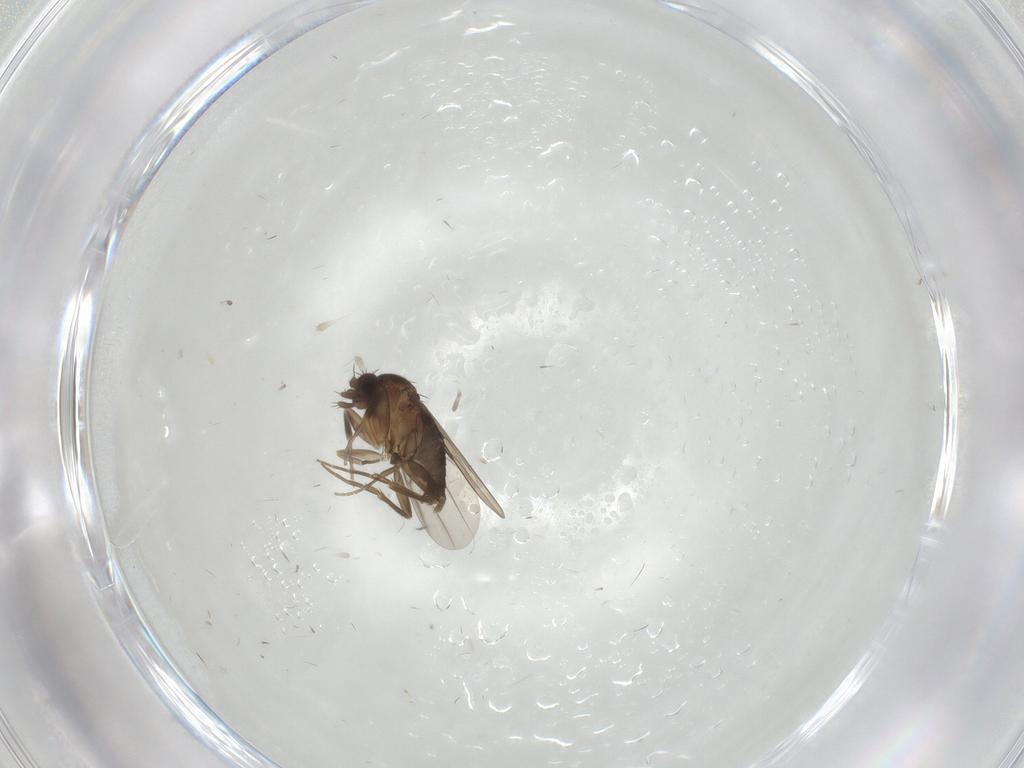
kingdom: Animalia
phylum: Arthropoda
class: Insecta
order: Diptera
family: Phoridae
